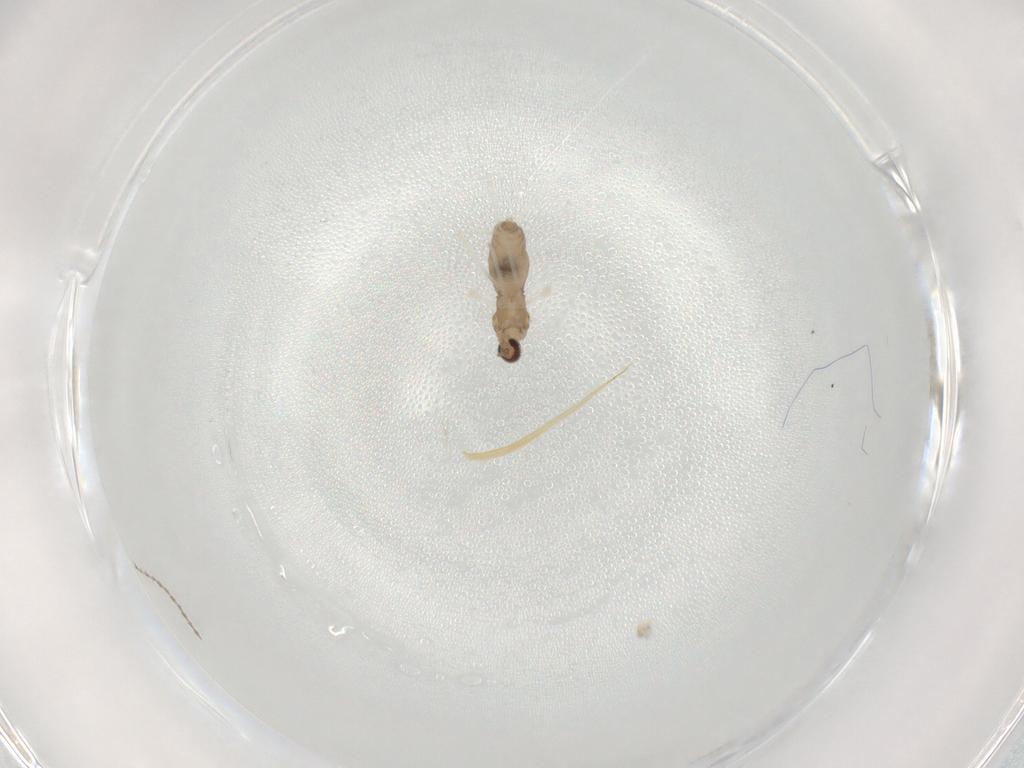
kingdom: Animalia
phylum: Arthropoda
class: Insecta
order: Diptera
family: Cecidomyiidae
